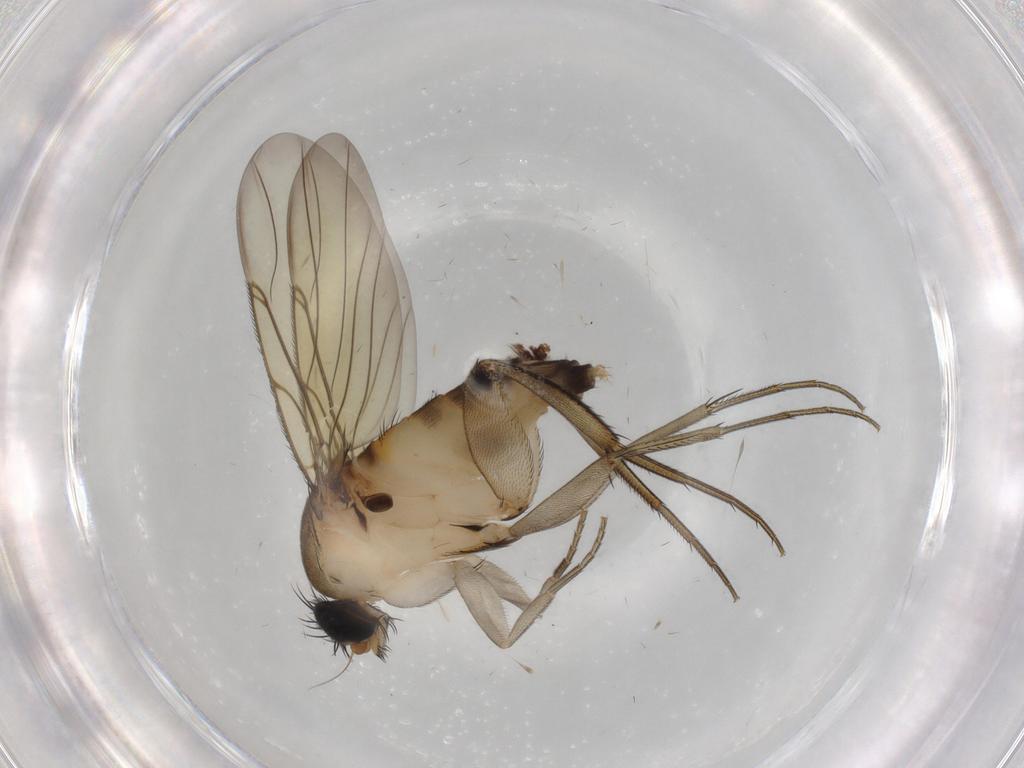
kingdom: Animalia
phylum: Arthropoda
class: Insecta
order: Diptera
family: Phoridae
